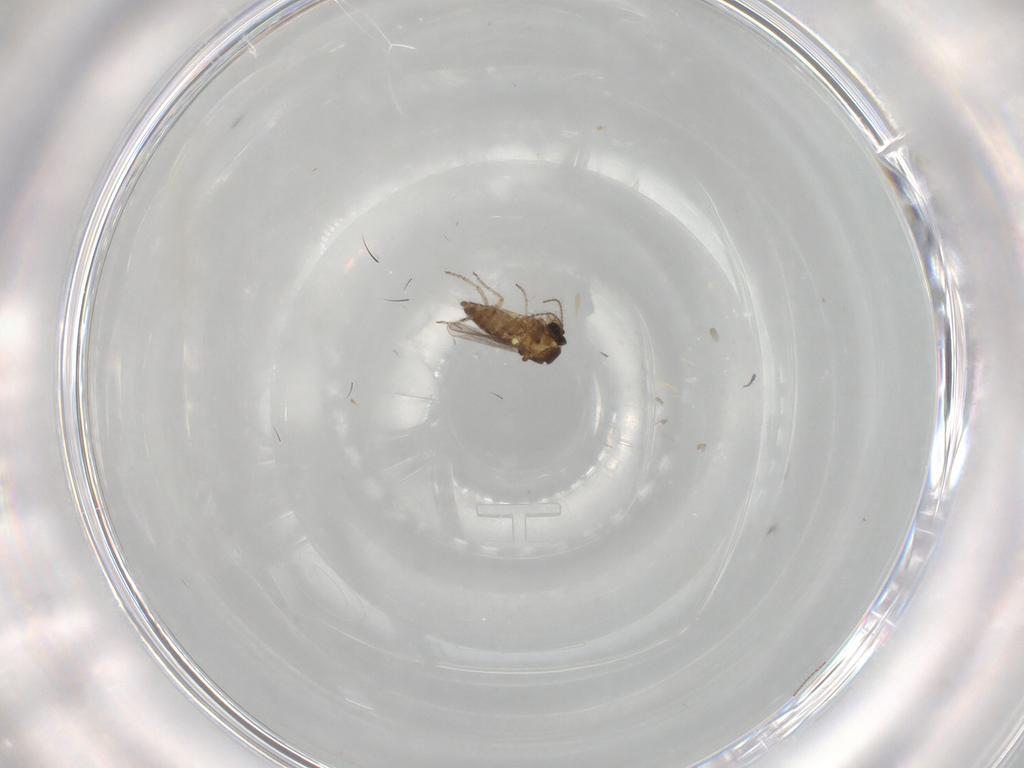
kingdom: Animalia
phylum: Arthropoda
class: Insecta
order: Diptera
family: Ceratopogonidae
